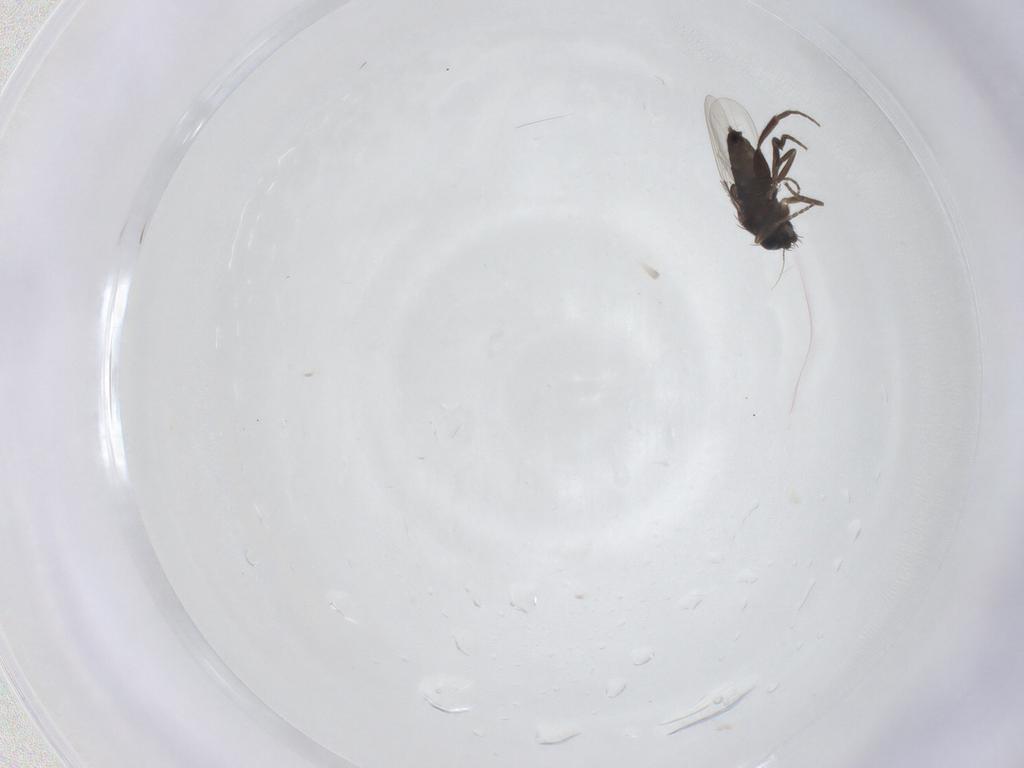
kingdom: Animalia
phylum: Arthropoda
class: Insecta
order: Diptera
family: Phoridae
